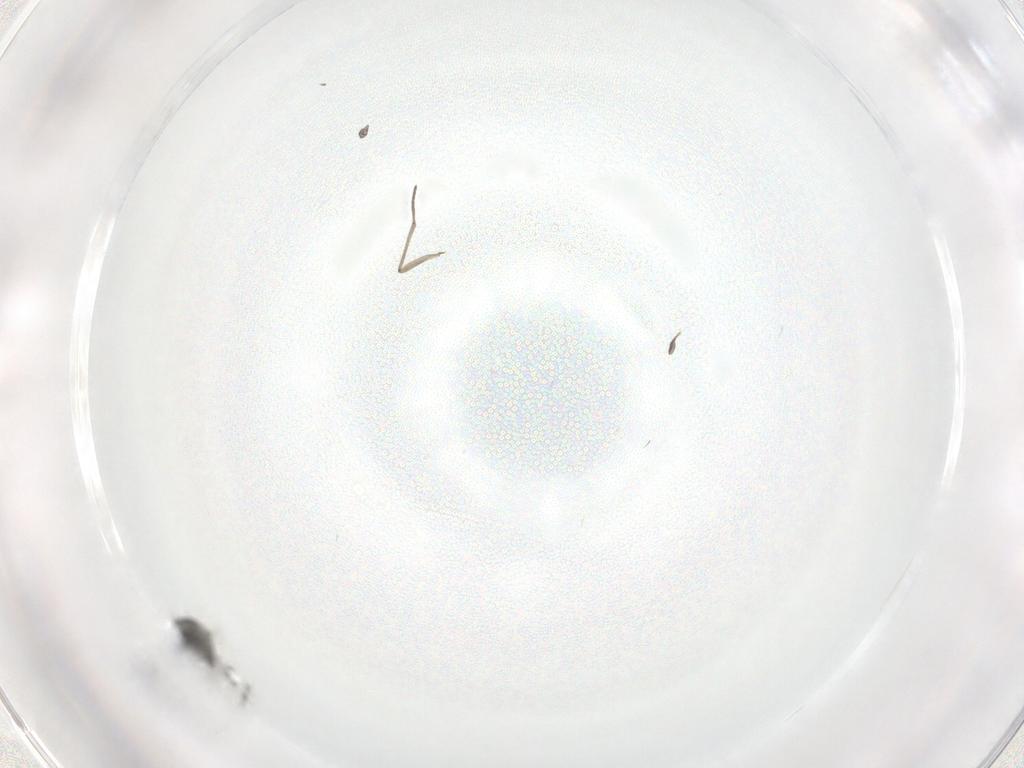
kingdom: Animalia
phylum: Arthropoda
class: Insecta
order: Diptera
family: Ceratopogonidae
